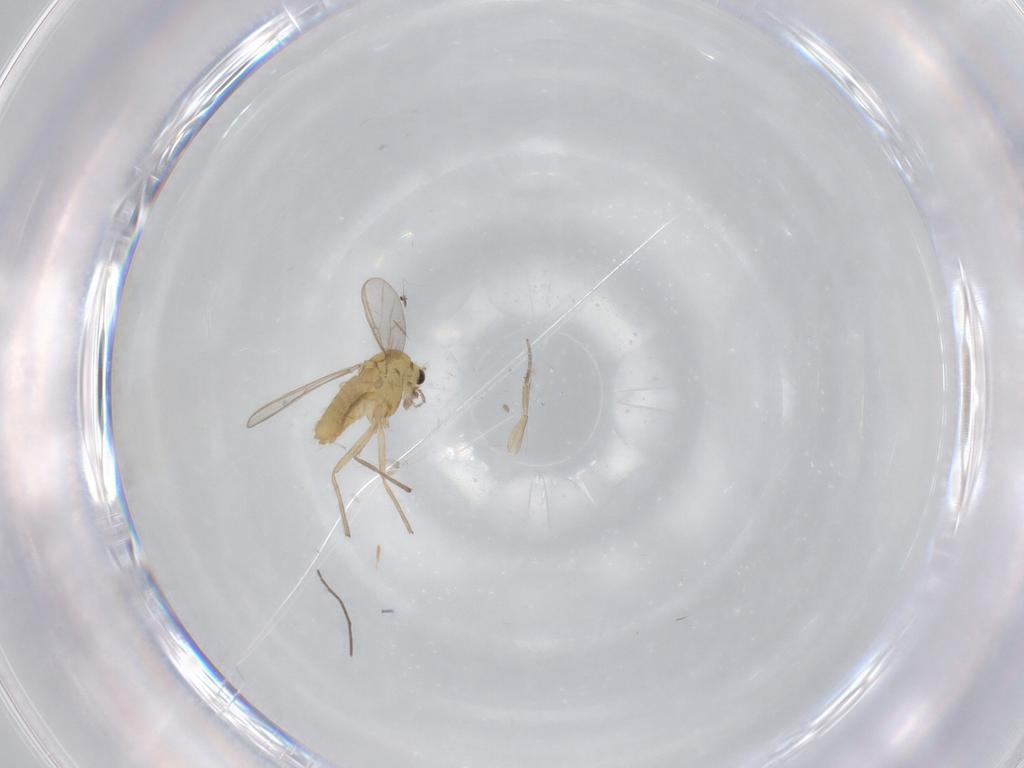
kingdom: Animalia
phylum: Arthropoda
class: Insecta
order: Diptera
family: Chironomidae
